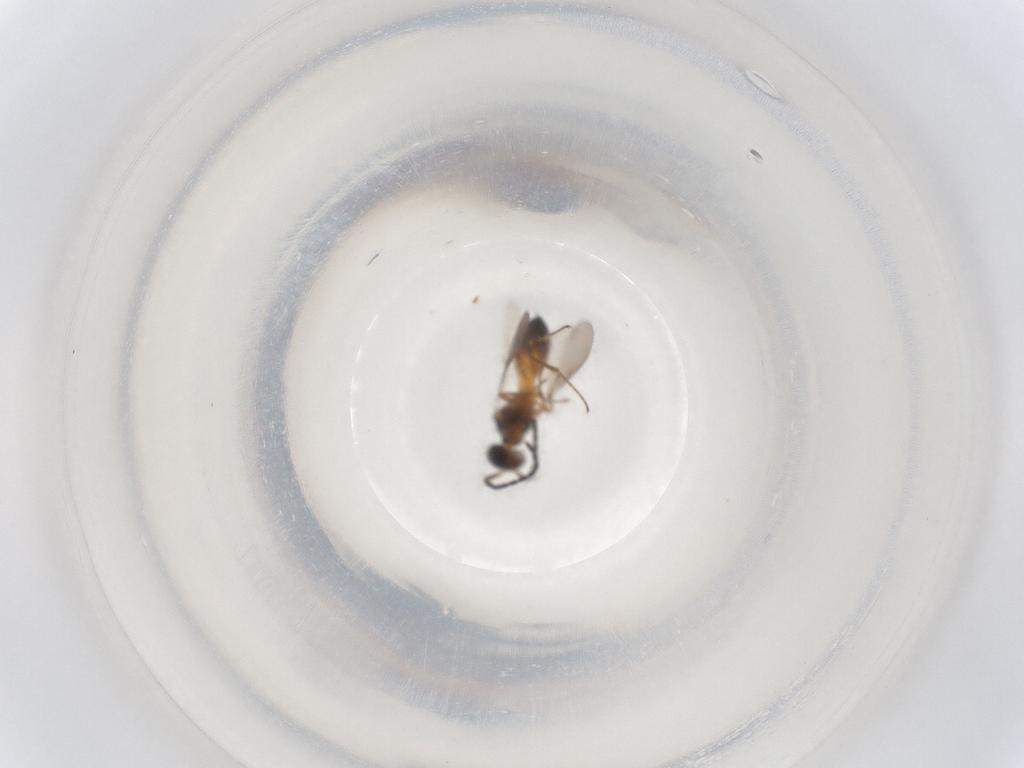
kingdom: Animalia
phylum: Arthropoda
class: Insecta
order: Hymenoptera
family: Scelionidae
